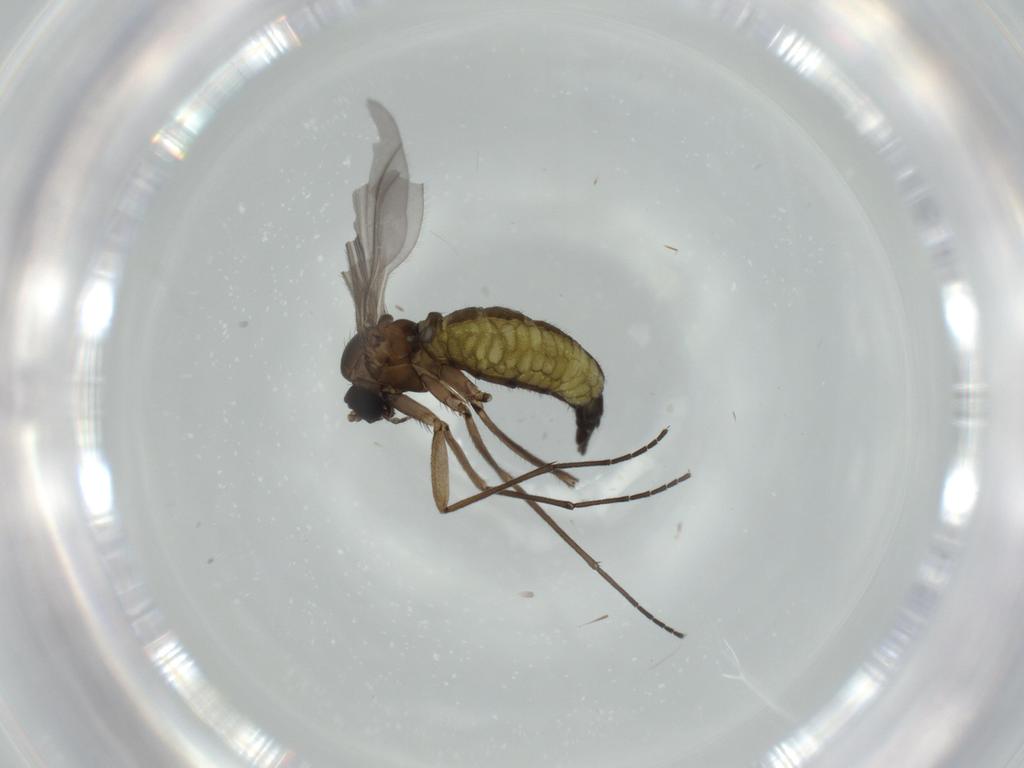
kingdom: Animalia
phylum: Arthropoda
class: Insecta
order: Diptera
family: Sciaridae
